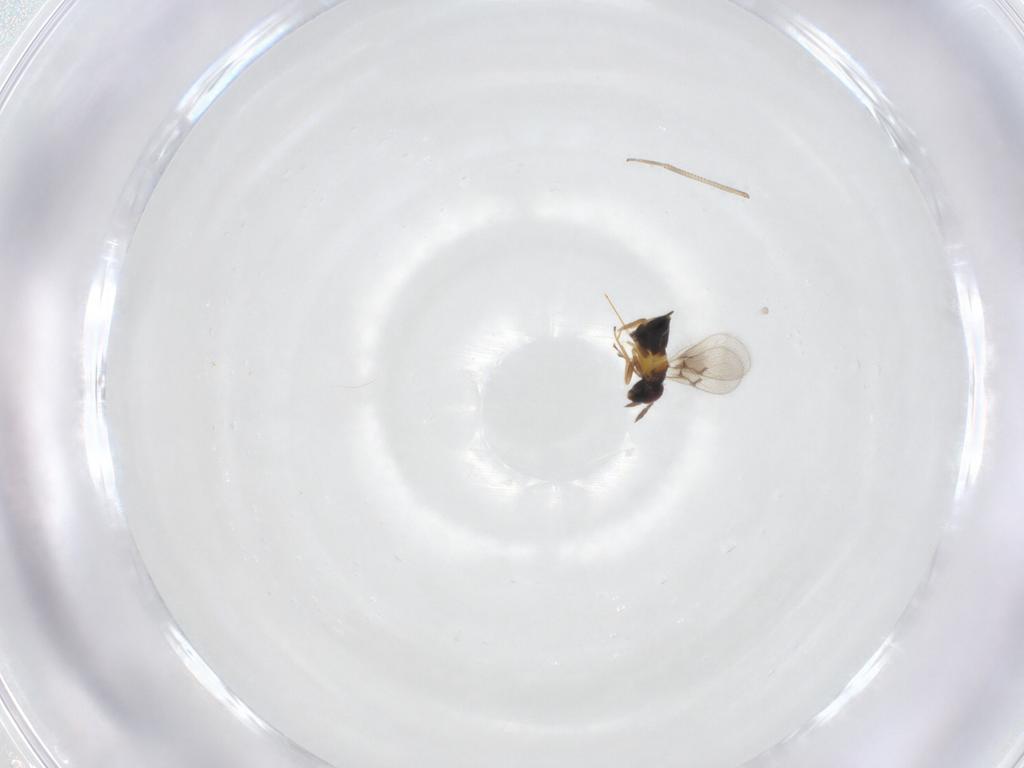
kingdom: Animalia
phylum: Arthropoda
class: Insecta
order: Hymenoptera
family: Trichogrammatidae
